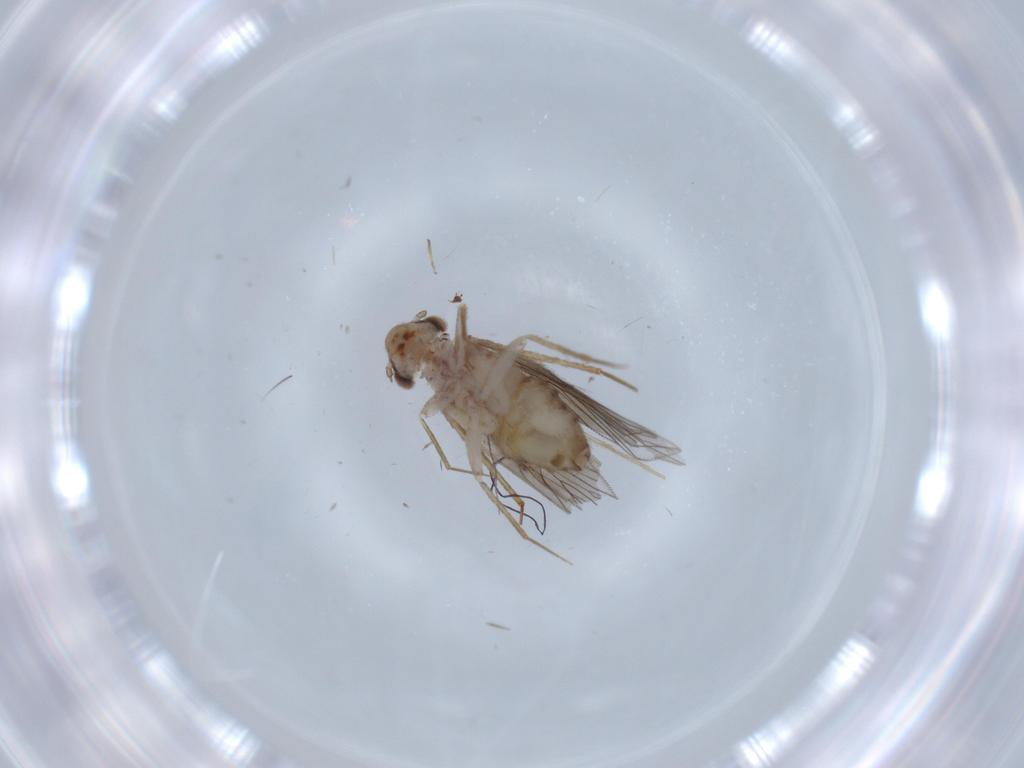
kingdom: Animalia
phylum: Arthropoda
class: Insecta
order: Psocodea
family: Lepidopsocidae
